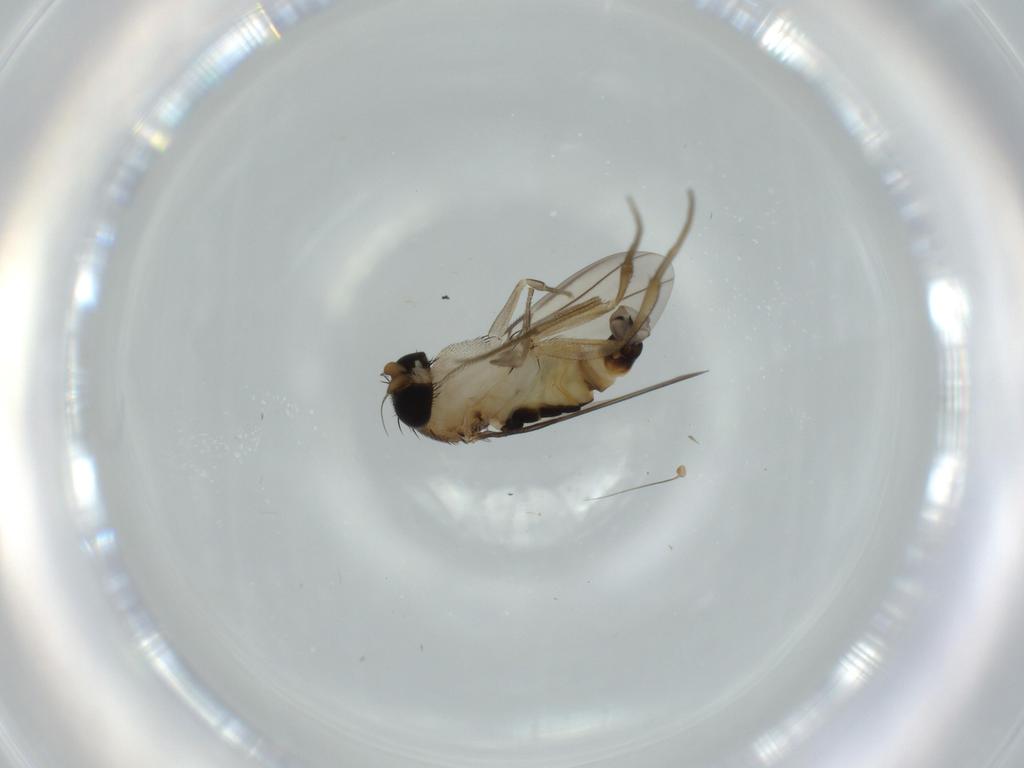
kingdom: Animalia
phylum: Arthropoda
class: Insecta
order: Diptera
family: Phoridae
